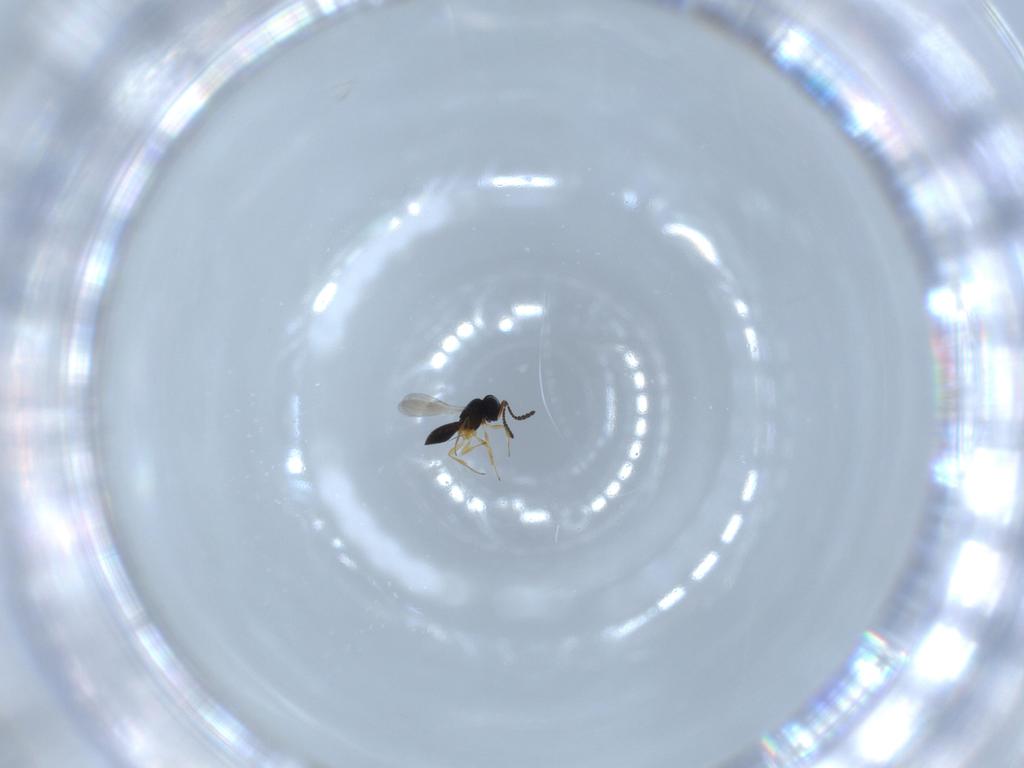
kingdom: Animalia
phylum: Arthropoda
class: Insecta
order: Hymenoptera
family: Scelionidae
